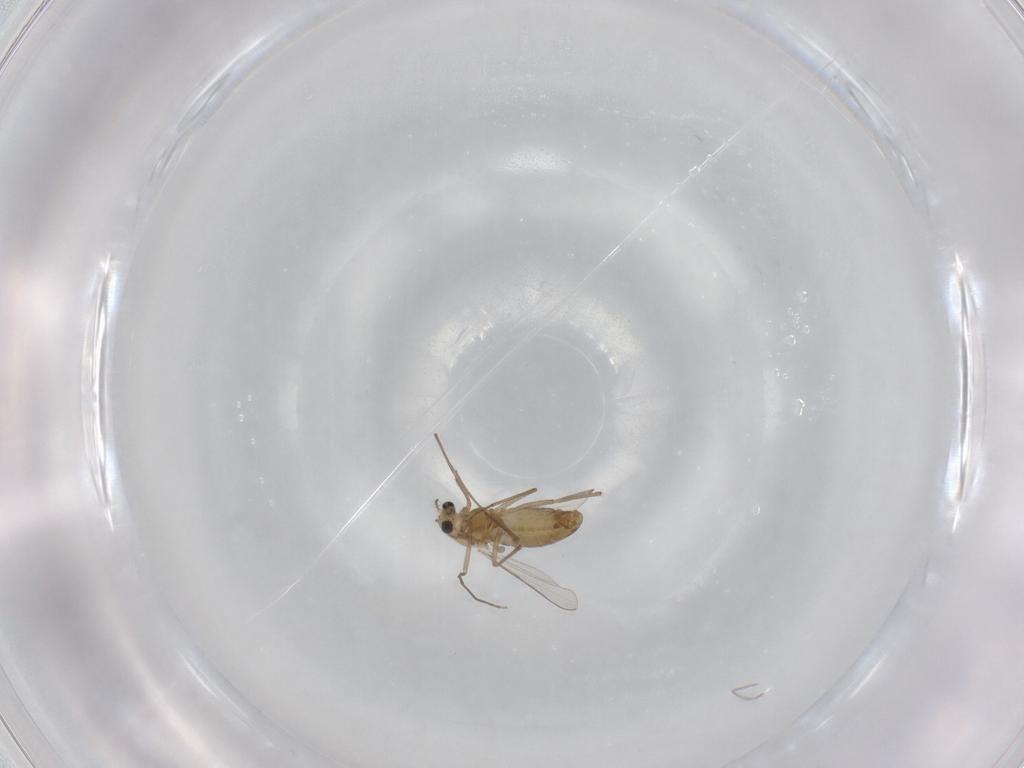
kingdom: Animalia
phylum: Arthropoda
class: Insecta
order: Diptera
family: Chironomidae
